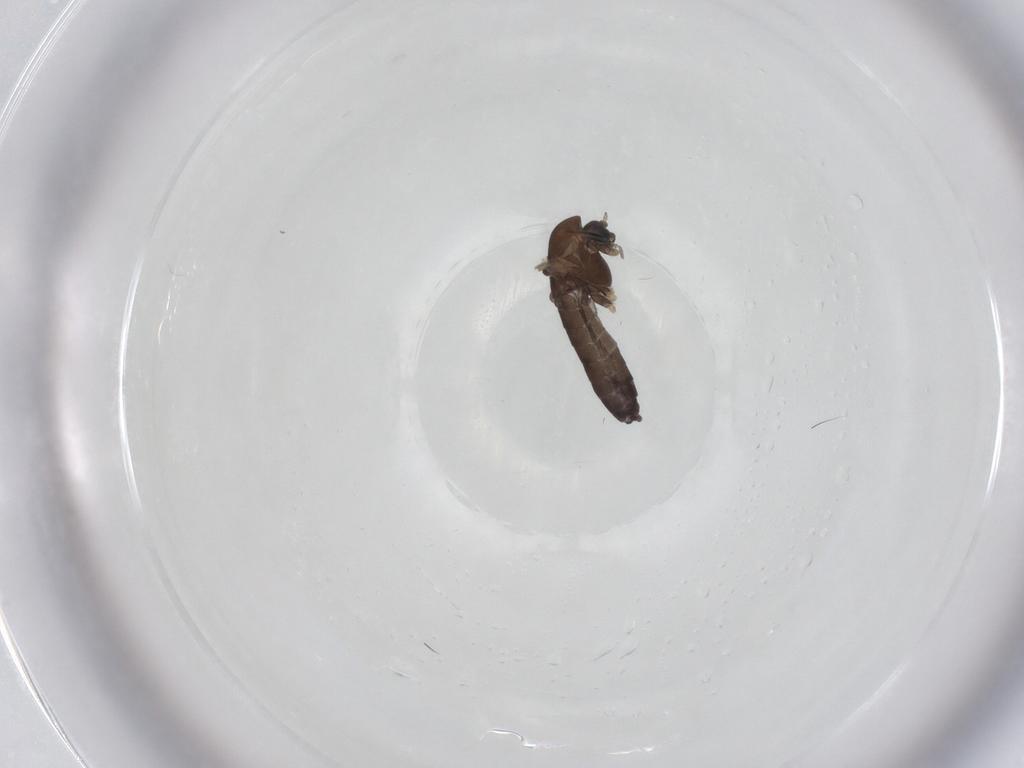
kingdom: Animalia
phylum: Arthropoda
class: Insecta
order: Diptera
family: Chironomidae
